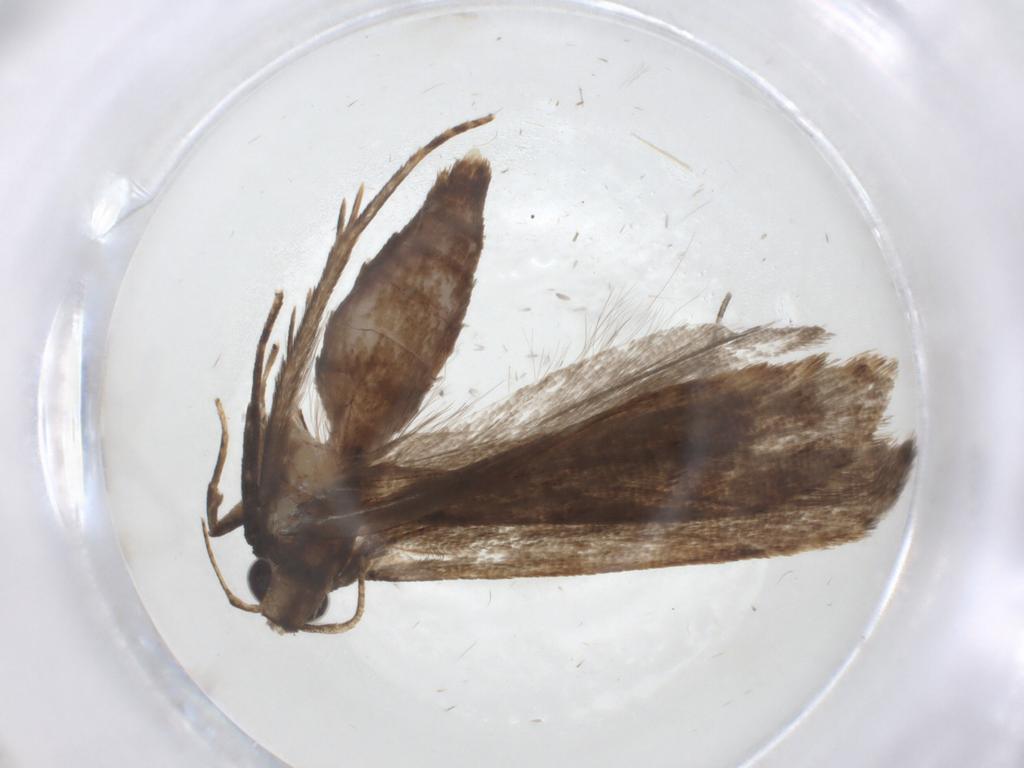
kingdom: Animalia
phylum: Arthropoda
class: Insecta
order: Lepidoptera
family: Gelechiidae
